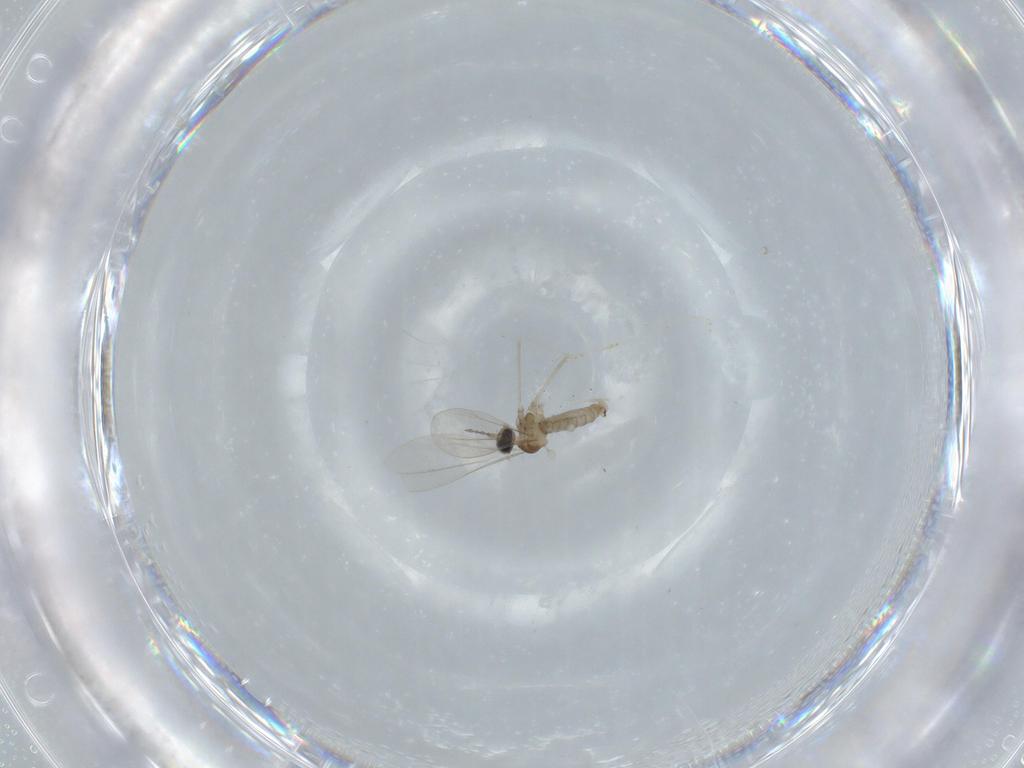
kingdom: Animalia
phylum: Arthropoda
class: Insecta
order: Diptera
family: Cecidomyiidae
